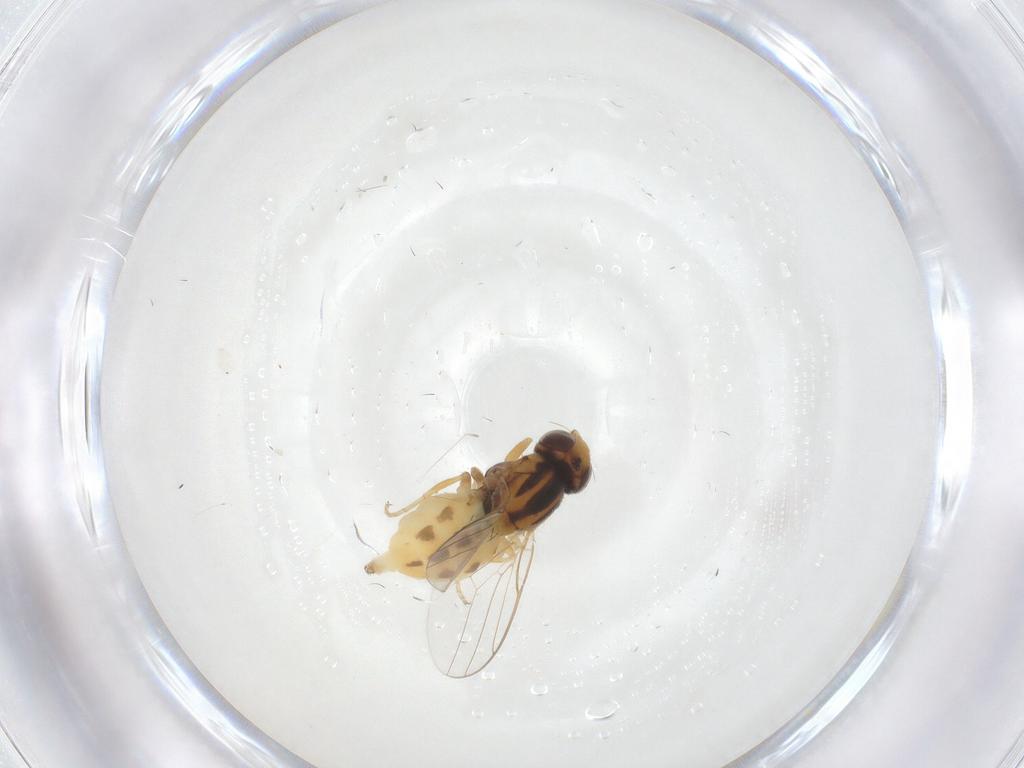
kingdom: Animalia
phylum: Arthropoda
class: Insecta
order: Diptera
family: Chloropidae
